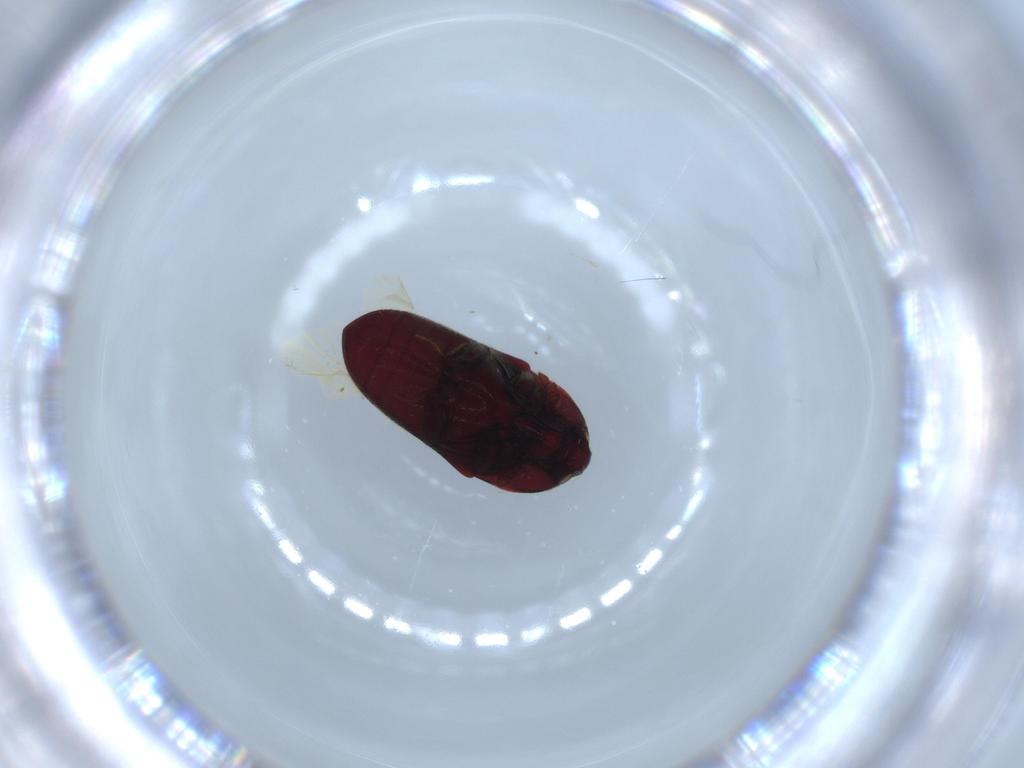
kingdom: Animalia
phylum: Arthropoda
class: Insecta
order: Coleoptera
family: Throscidae
